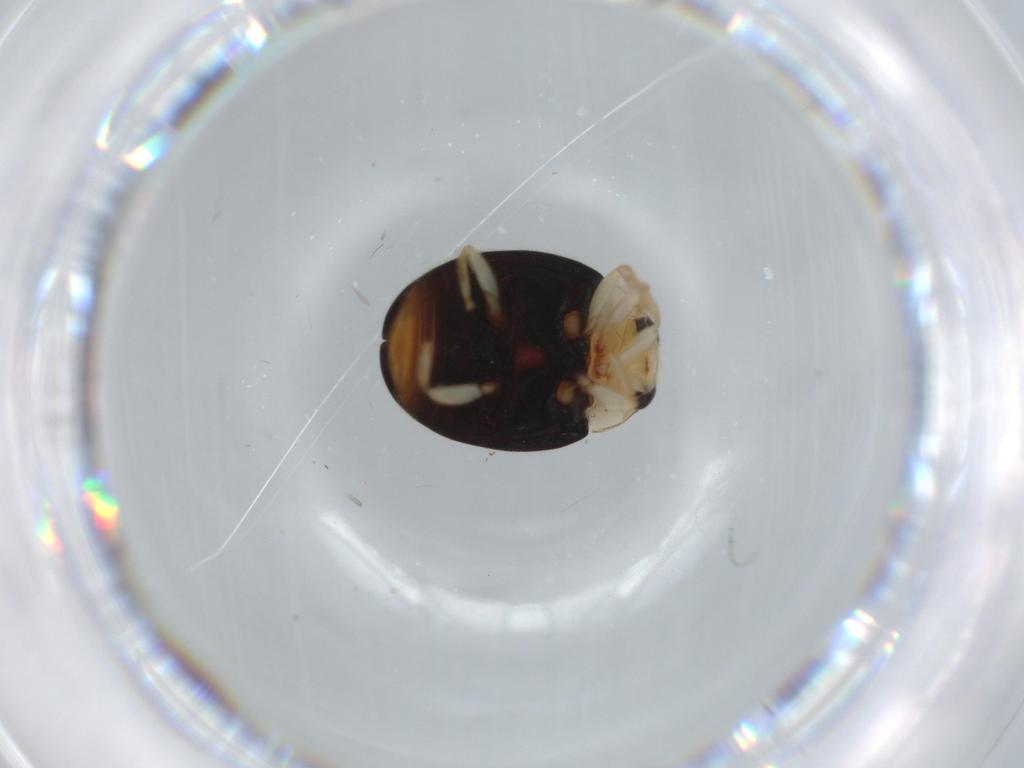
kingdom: Animalia
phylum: Arthropoda
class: Insecta
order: Coleoptera
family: Coccinellidae
